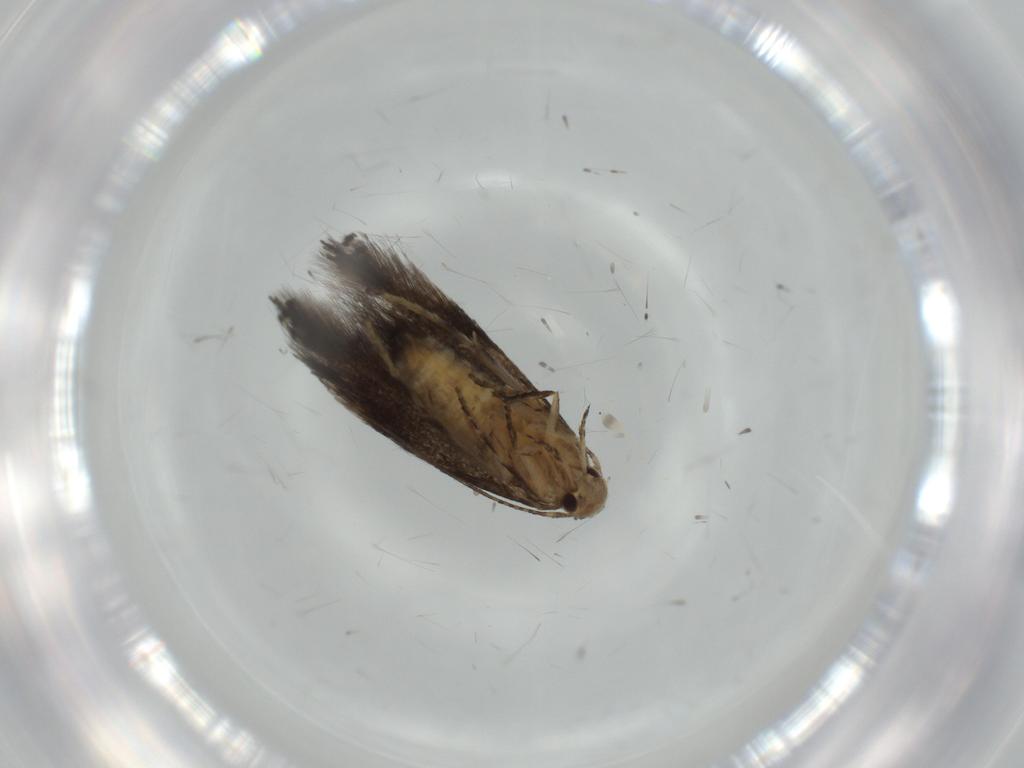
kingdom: Animalia
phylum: Arthropoda
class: Insecta
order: Lepidoptera
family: Gelechiidae
